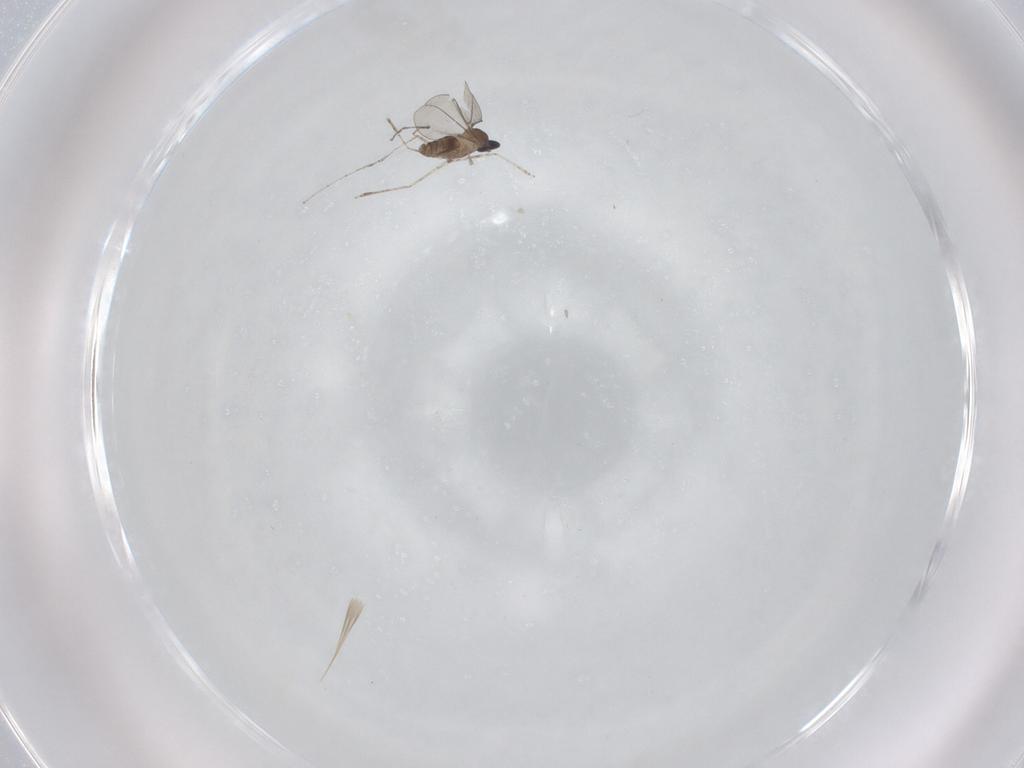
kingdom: Animalia
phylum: Arthropoda
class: Insecta
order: Diptera
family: Cecidomyiidae
